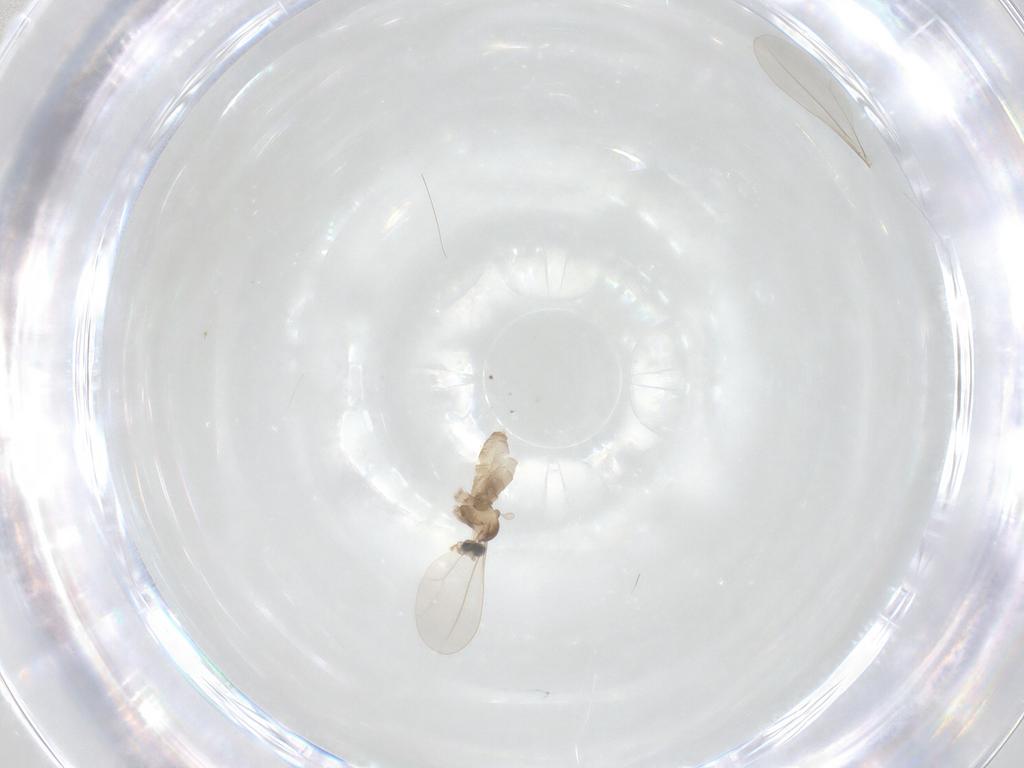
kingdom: Animalia
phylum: Arthropoda
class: Insecta
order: Diptera
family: Cecidomyiidae
